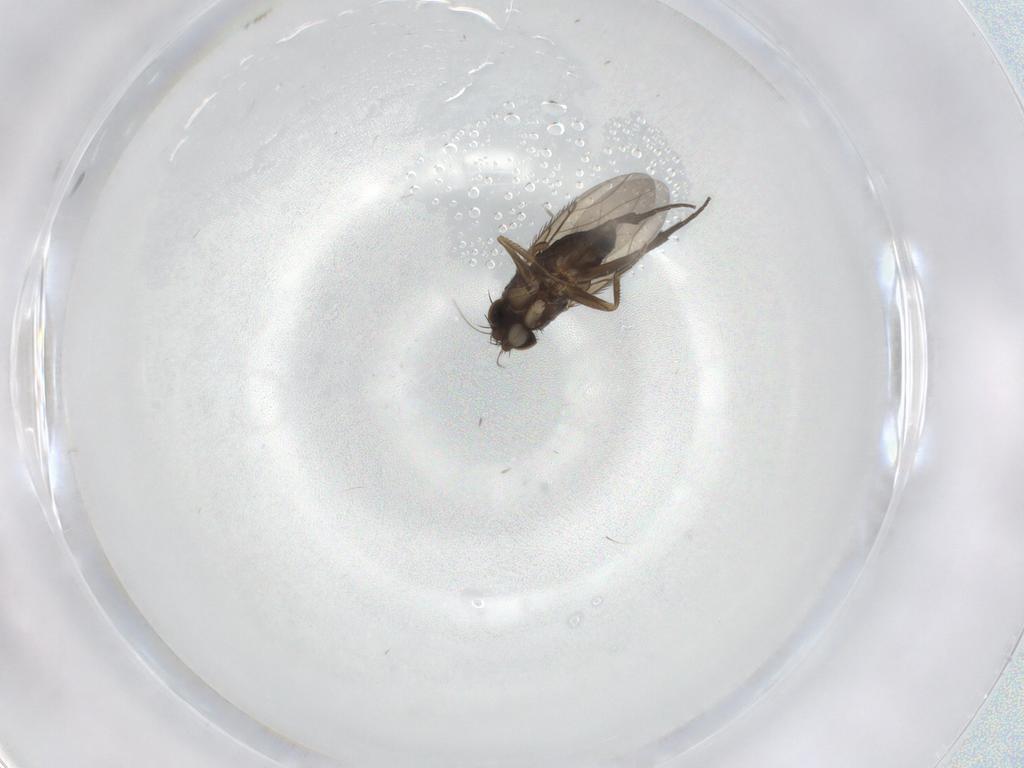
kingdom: Animalia
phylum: Arthropoda
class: Insecta
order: Diptera
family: Phoridae
